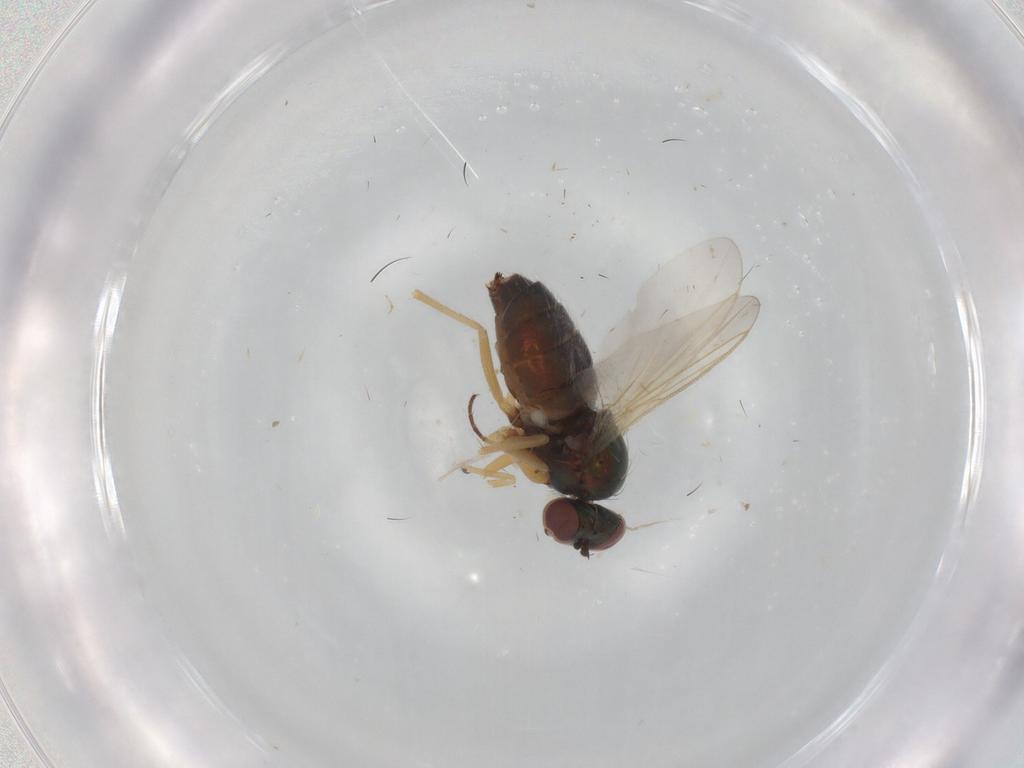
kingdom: Animalia
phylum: Arthropoda
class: Insecta
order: Diptera
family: Dolichopodidae
